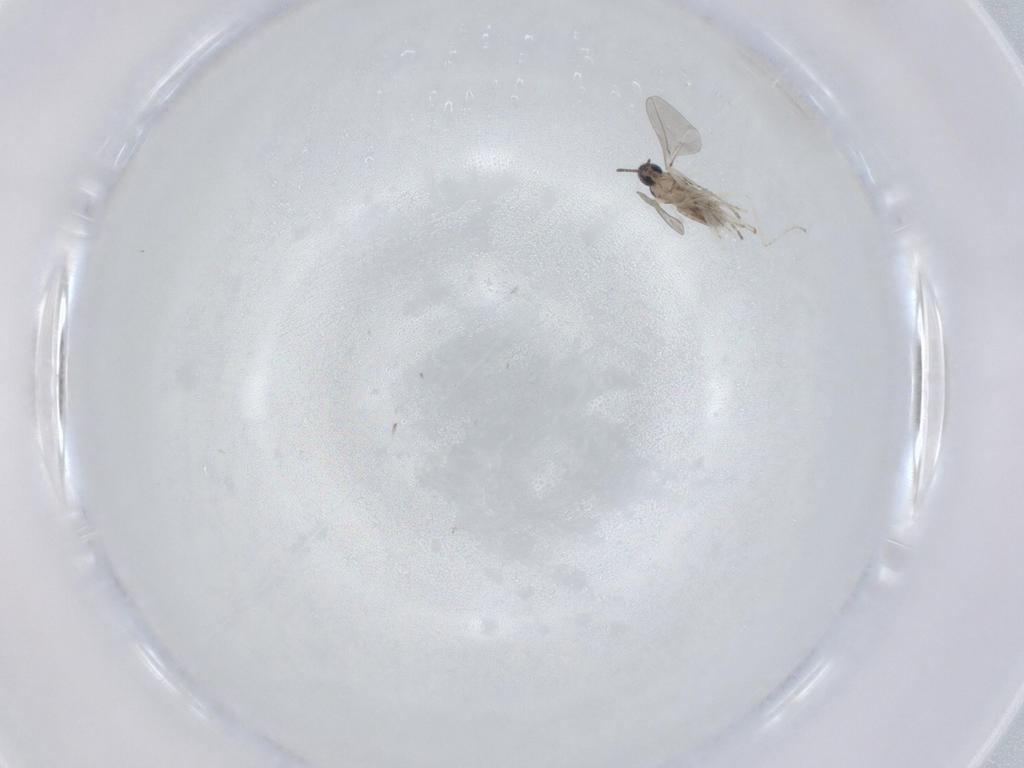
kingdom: Animalia
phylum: Arthropoda
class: Insecta
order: Diptera
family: Cecidomyiidae
